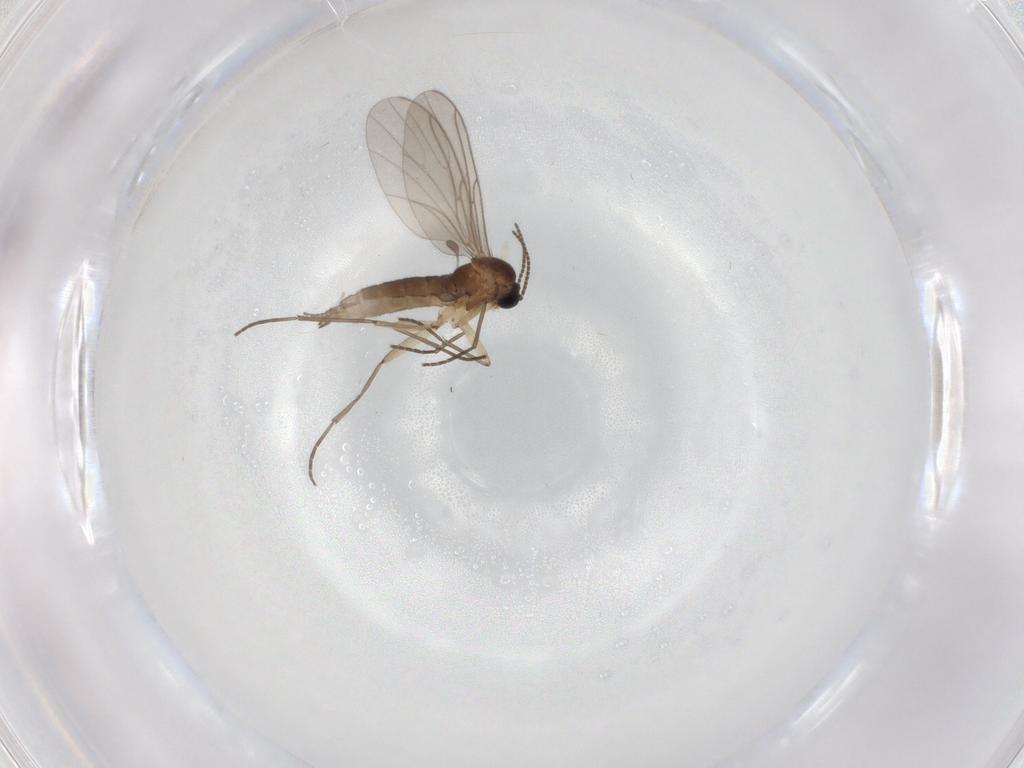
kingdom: Animalia
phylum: Arthropoda
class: Insecta
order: Diptera
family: Sciaridae
